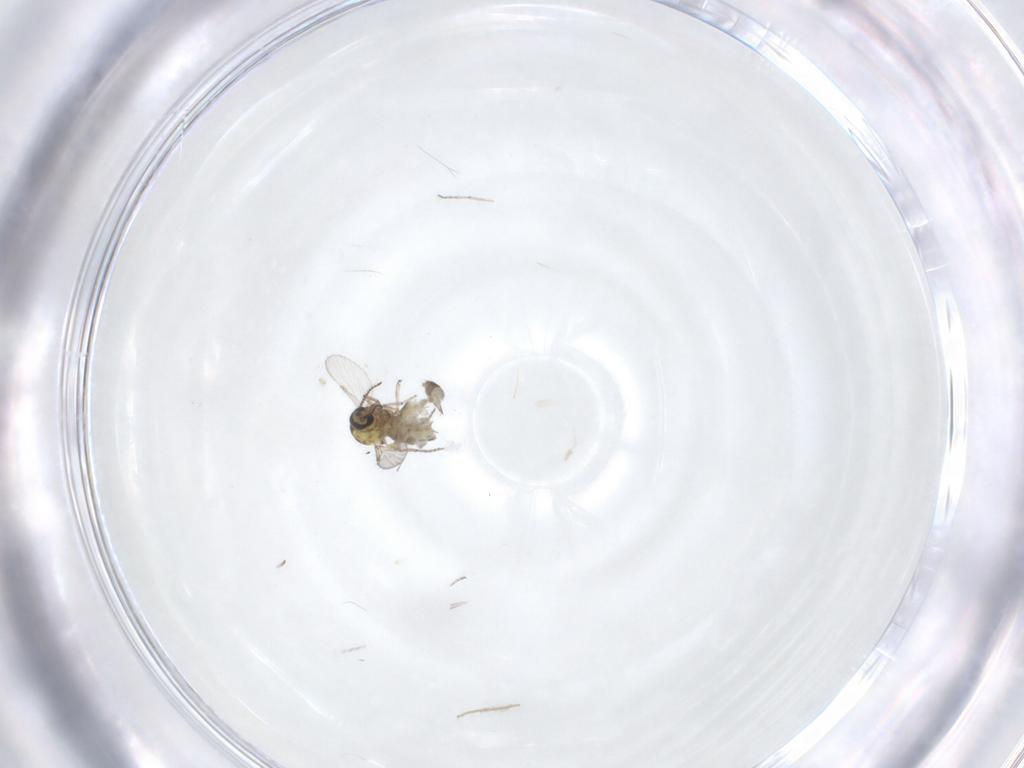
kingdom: Animalia
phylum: Arthropoda
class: Insecta
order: Diptera
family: Ceratopogonidae
